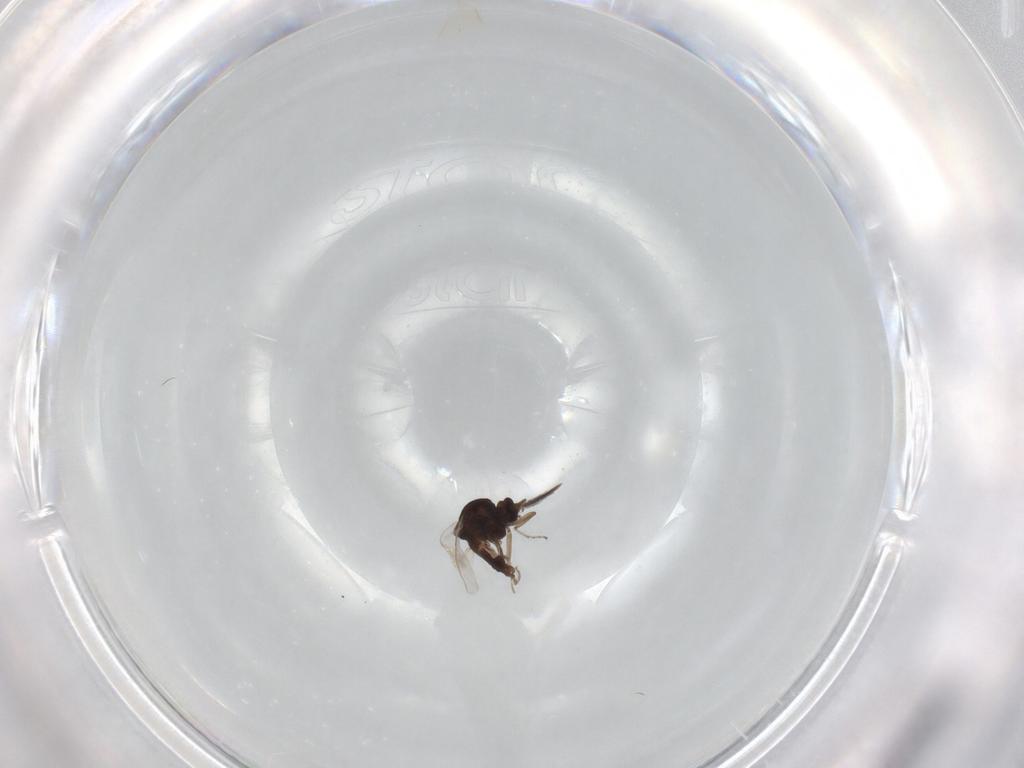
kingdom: Animalia
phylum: Arthropoda
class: Insecta
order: Diptera
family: Ceratopogonidae
